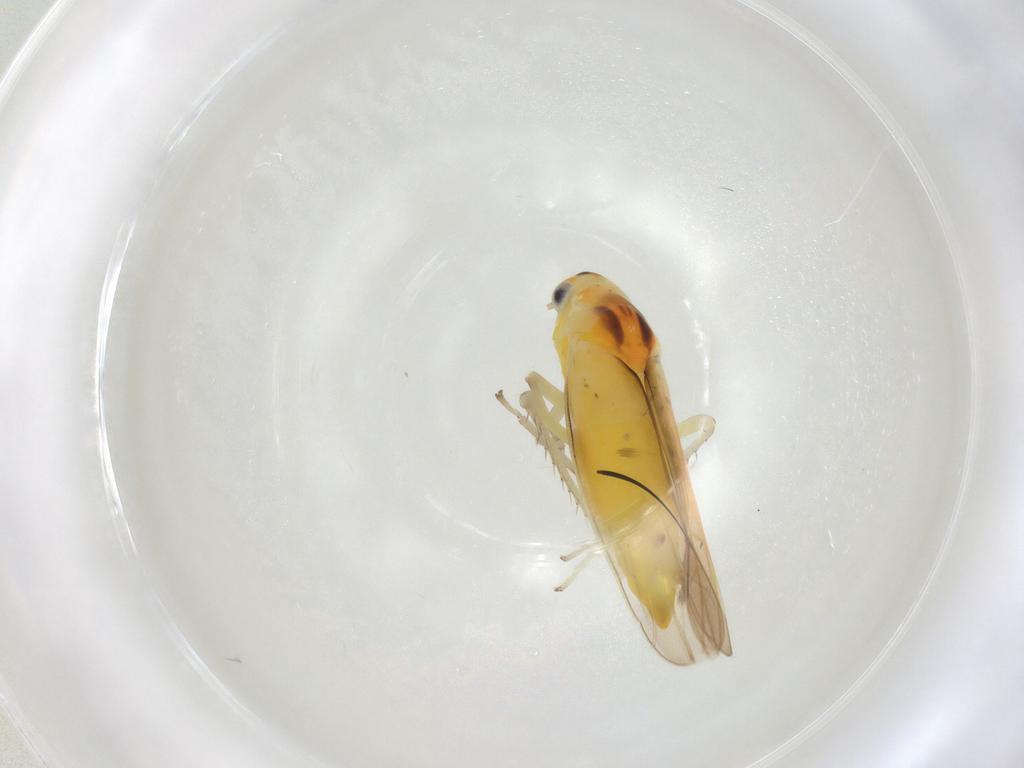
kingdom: Animalia
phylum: Arthropoda
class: Insecta
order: Hemiptera
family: Cicadellidae
